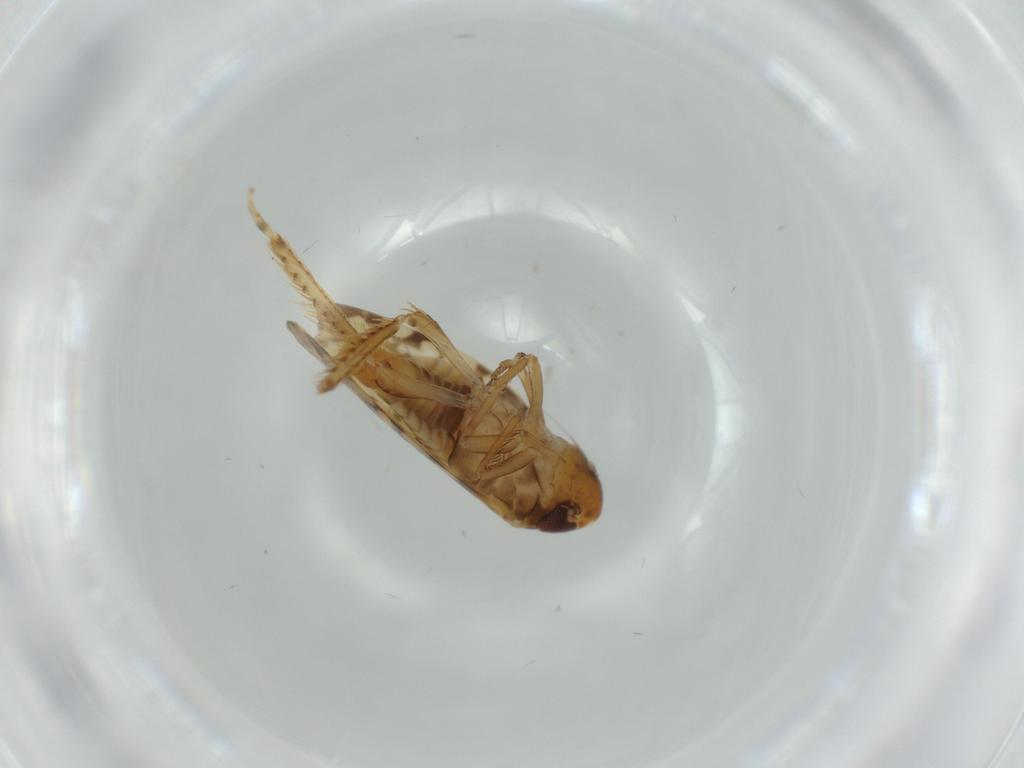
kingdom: Animalia
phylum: Arthropoda
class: Insecta
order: Hemiptera
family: Cicadellidae
